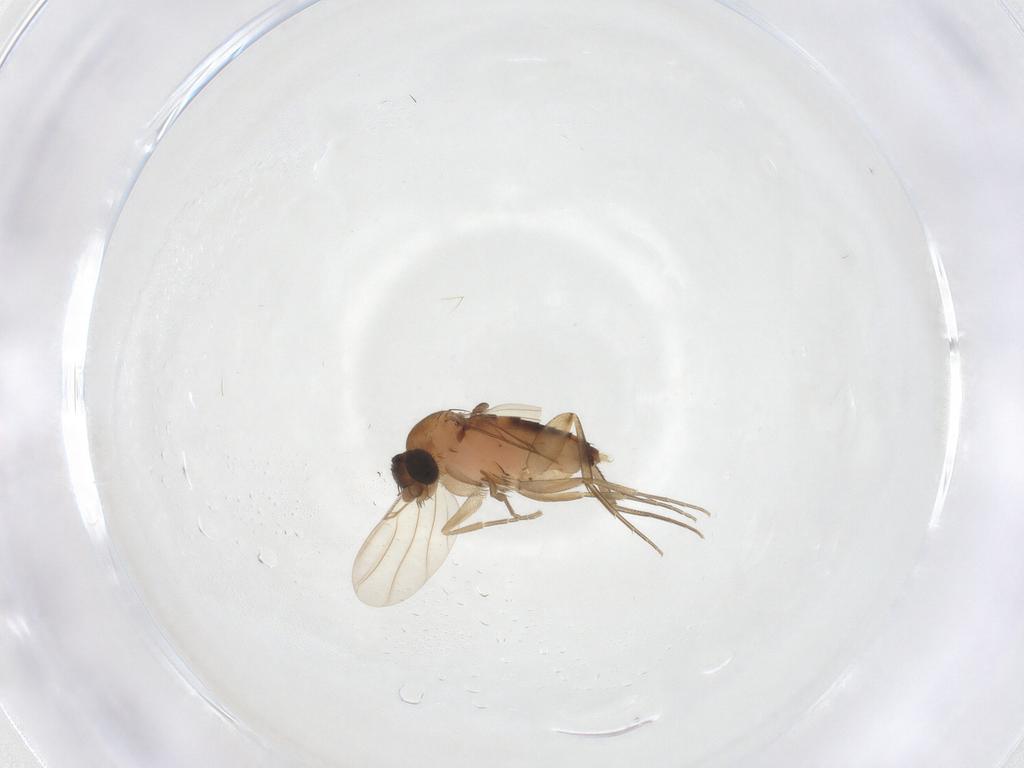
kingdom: Animalia
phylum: Arthropoda
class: Insecta
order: Diptera
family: Phoridae
